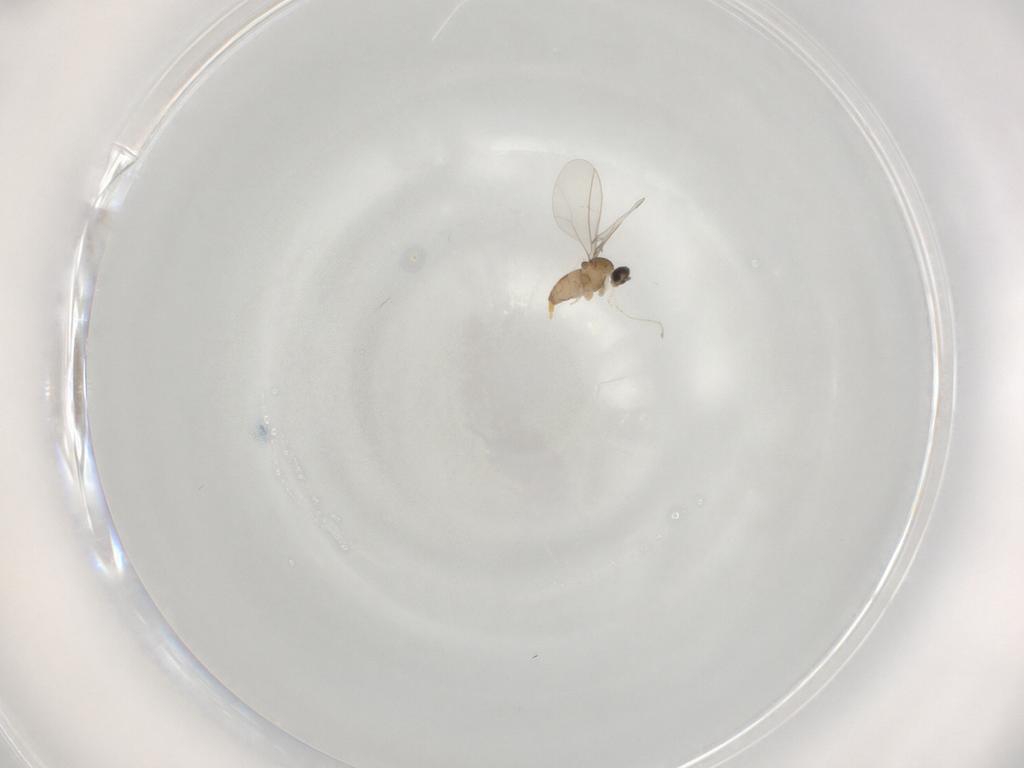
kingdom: Animalia
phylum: Arthropoda
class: Insecta
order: Diptera
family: Cecidomyiidae
